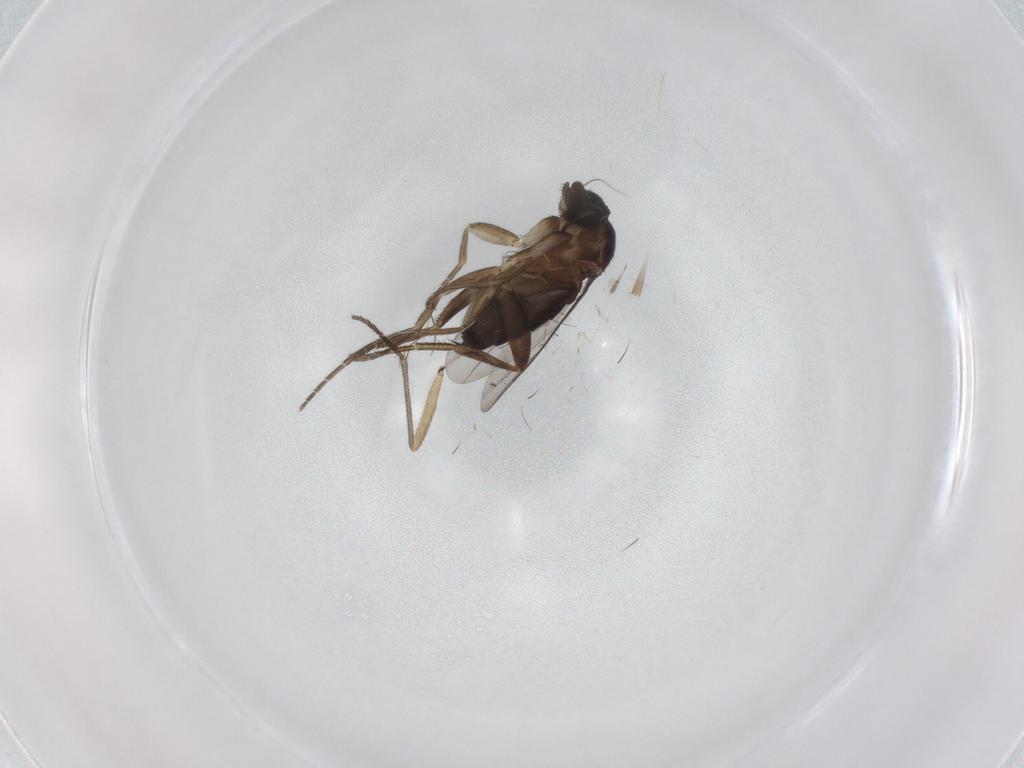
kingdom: Animalia
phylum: Arthropoda
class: Insecta
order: Diptera
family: Phoridae
